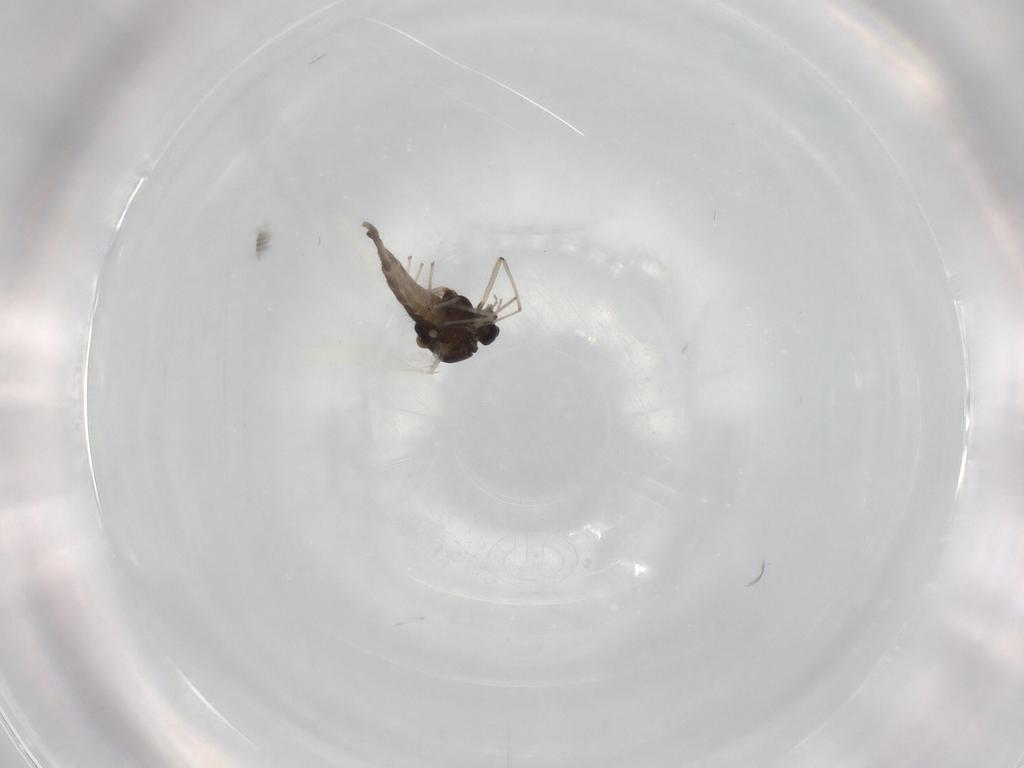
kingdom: Animalia
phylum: Arthropoda
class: Insecta
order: Diptera
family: Chironomidae
